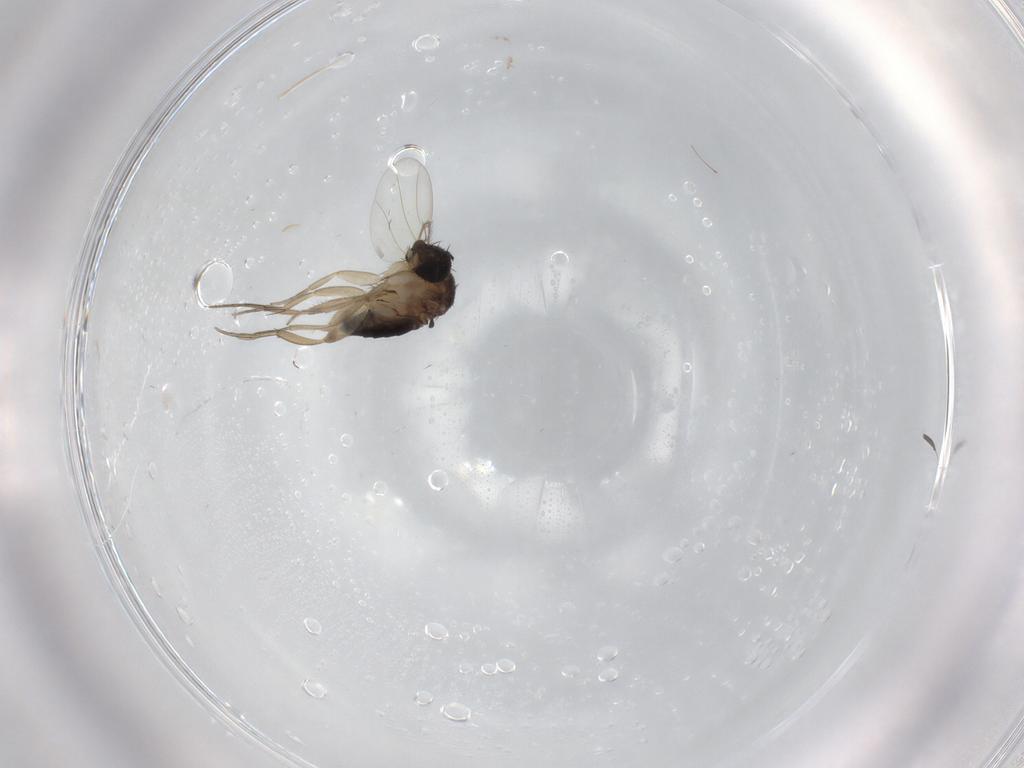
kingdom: Animalia
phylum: Arthropoda
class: Insecta
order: Diptera
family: Phoridae
